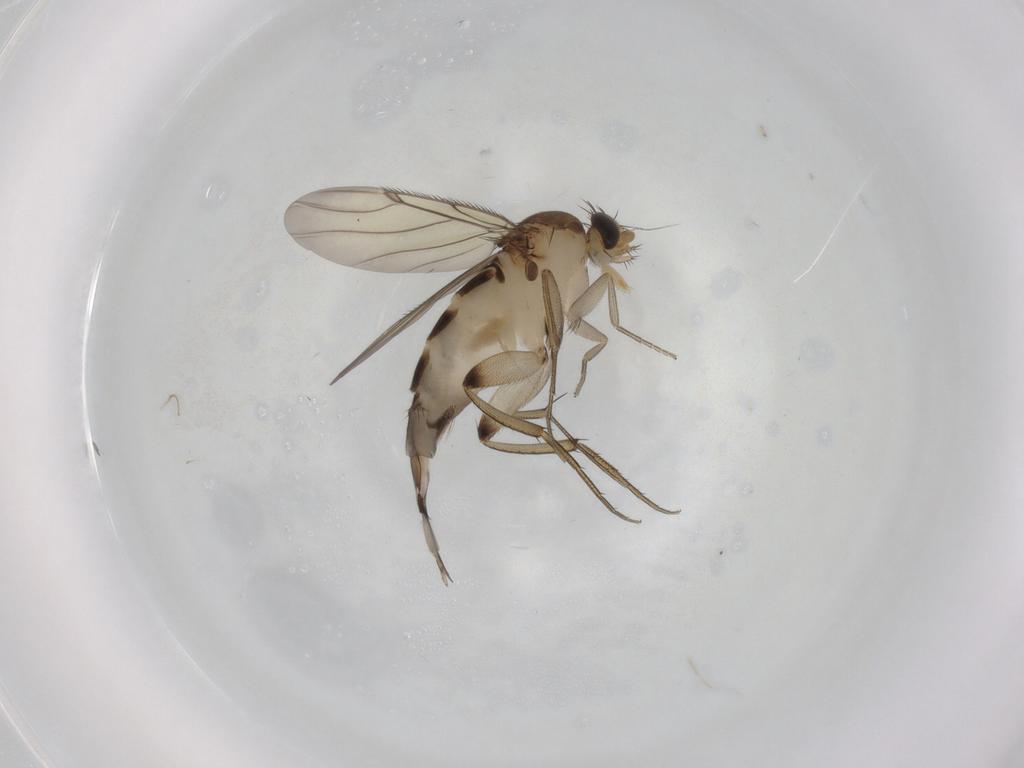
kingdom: Animalia
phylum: Arthropoda
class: Insecta
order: Diptera
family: Phoridae
